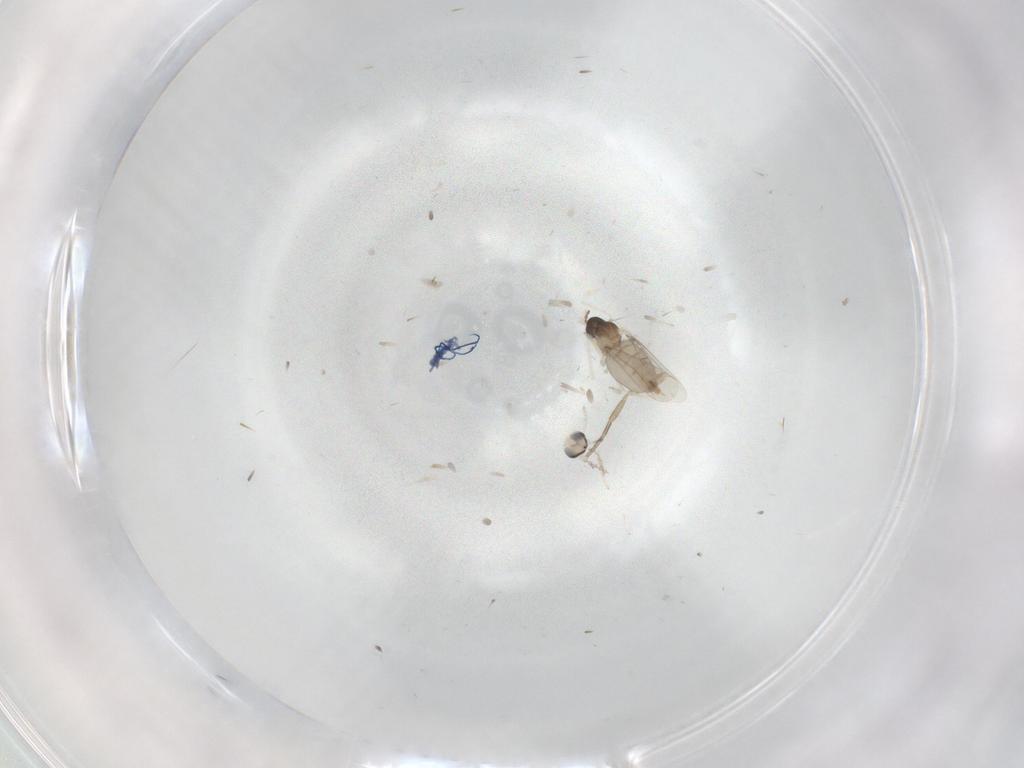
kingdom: Animalia
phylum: Arthropoda
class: Insecta
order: Diptera
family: Cecidomyiidae
